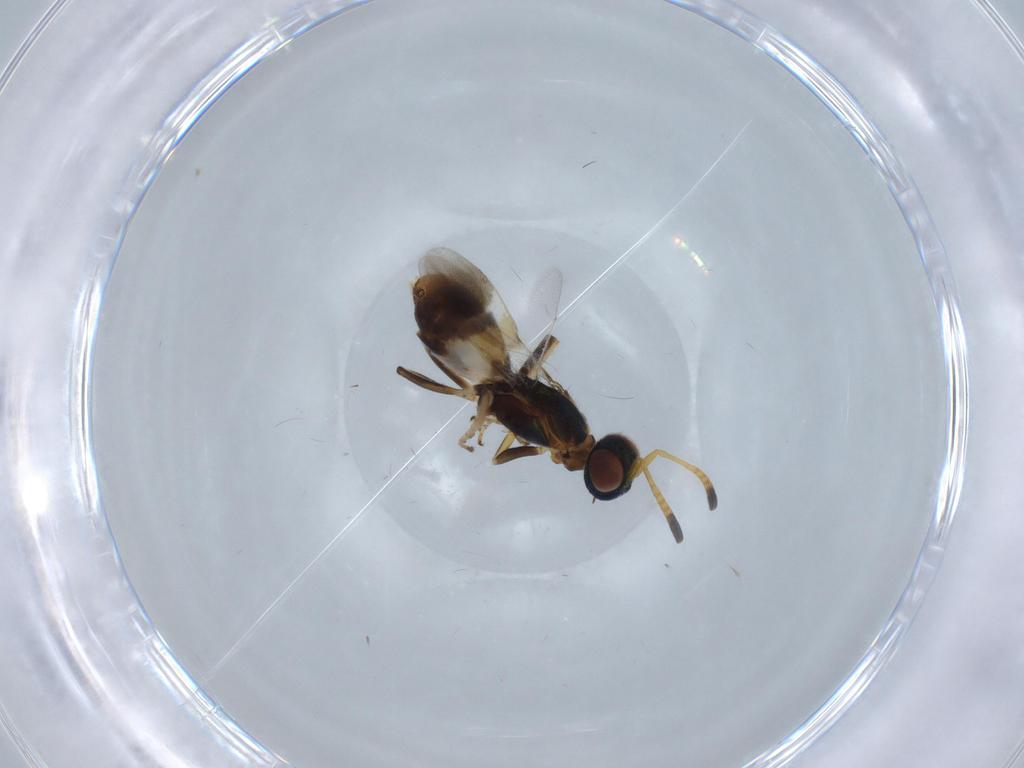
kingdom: Animalia
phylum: Arthropoda
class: Insecta
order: Hymenoptera
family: Eupelmidae
